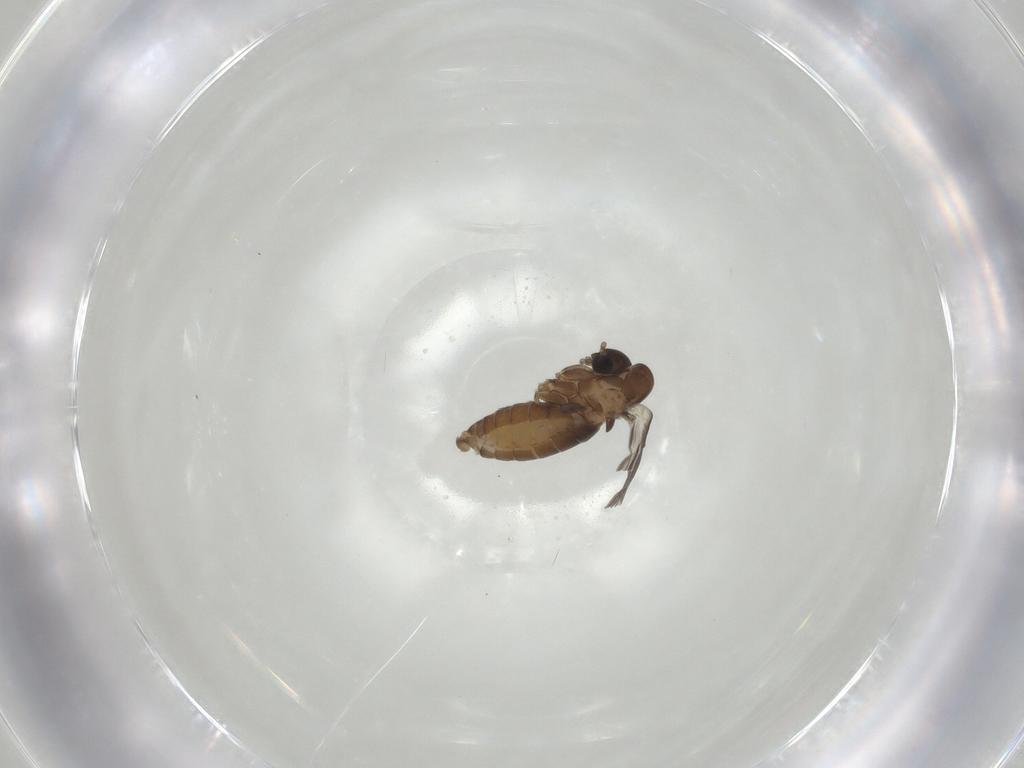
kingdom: Animalia
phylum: Arthropoda
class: Insecta
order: Diptera
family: Psychodidae
